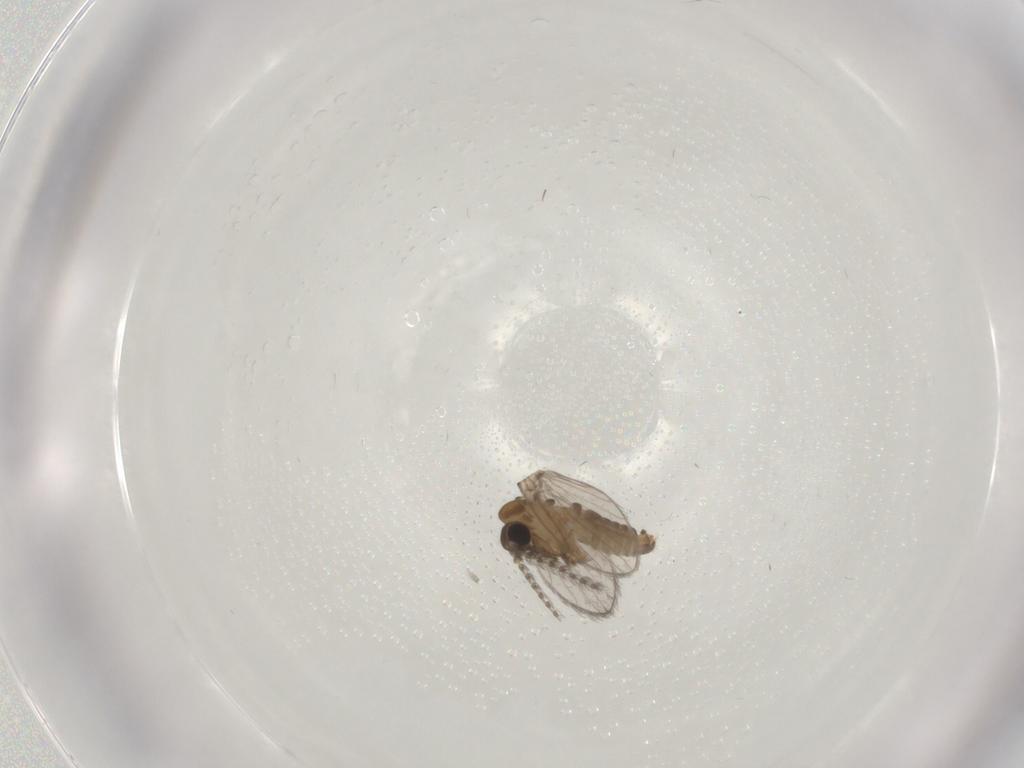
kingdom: Animalia
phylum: Arthropoda
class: Insecta
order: Diptera
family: Cecidomyiidae
